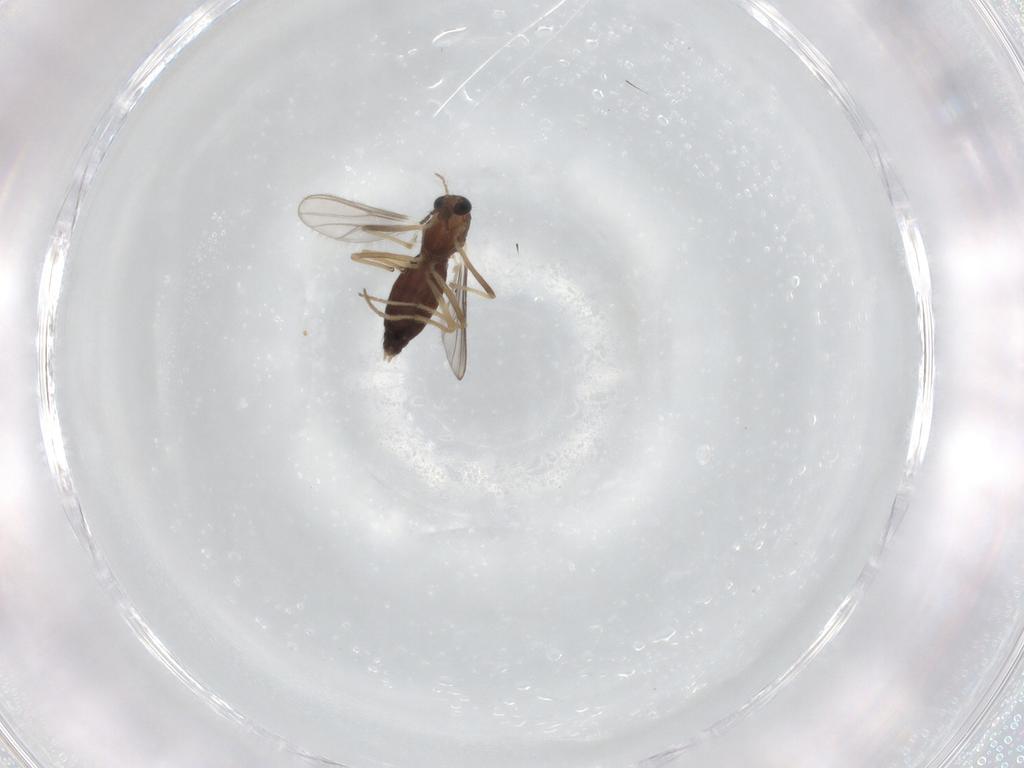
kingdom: Animalia
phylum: Arthropoda
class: Insecta
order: Diptera
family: Chironomidae
